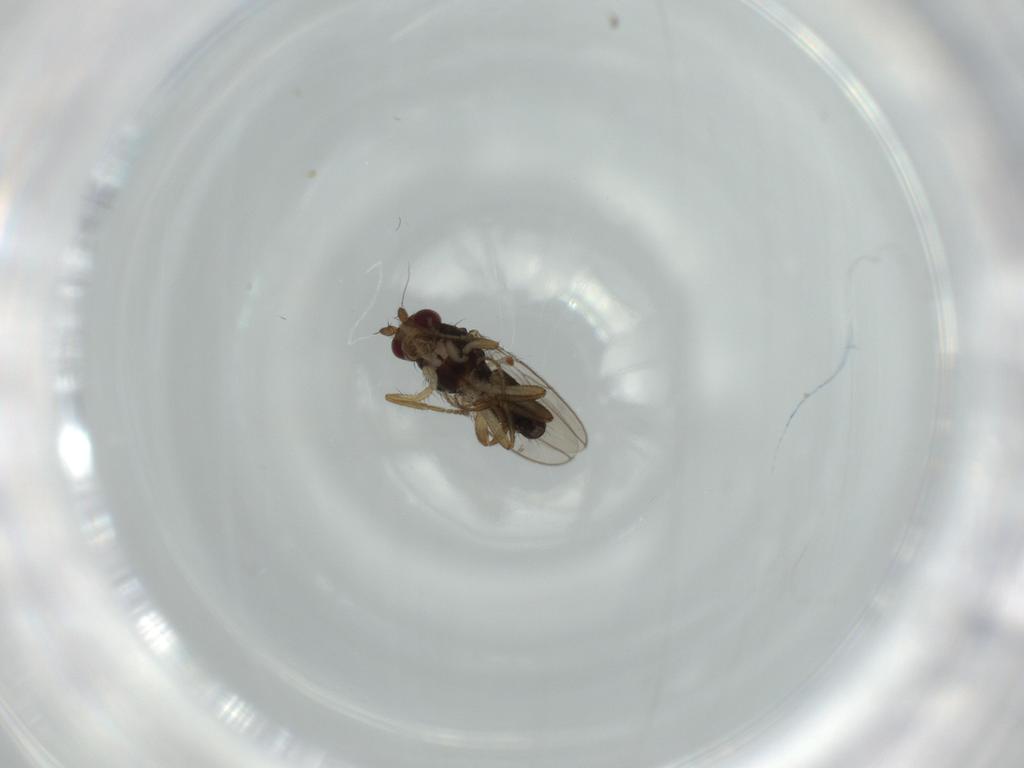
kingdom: Animalia
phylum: Arthropoda
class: Insecta
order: Diptera
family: Sphaeroceridae
